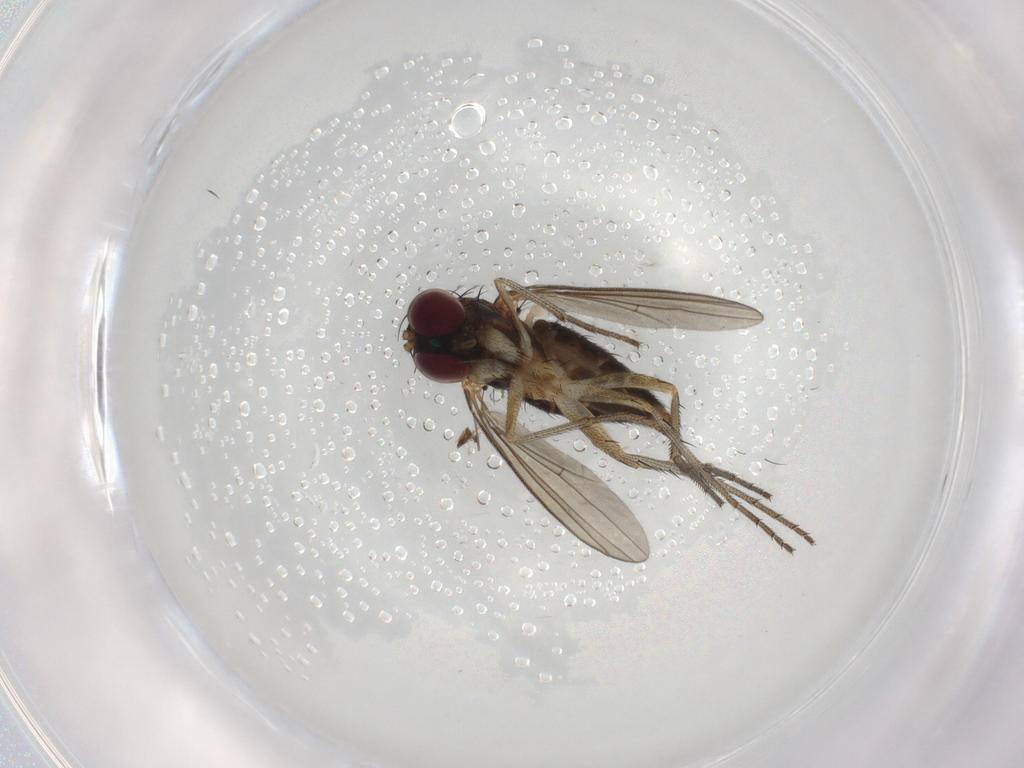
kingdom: Animalia
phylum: Arthropoda
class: Insecta
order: Diptera
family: Dolichopodidae
